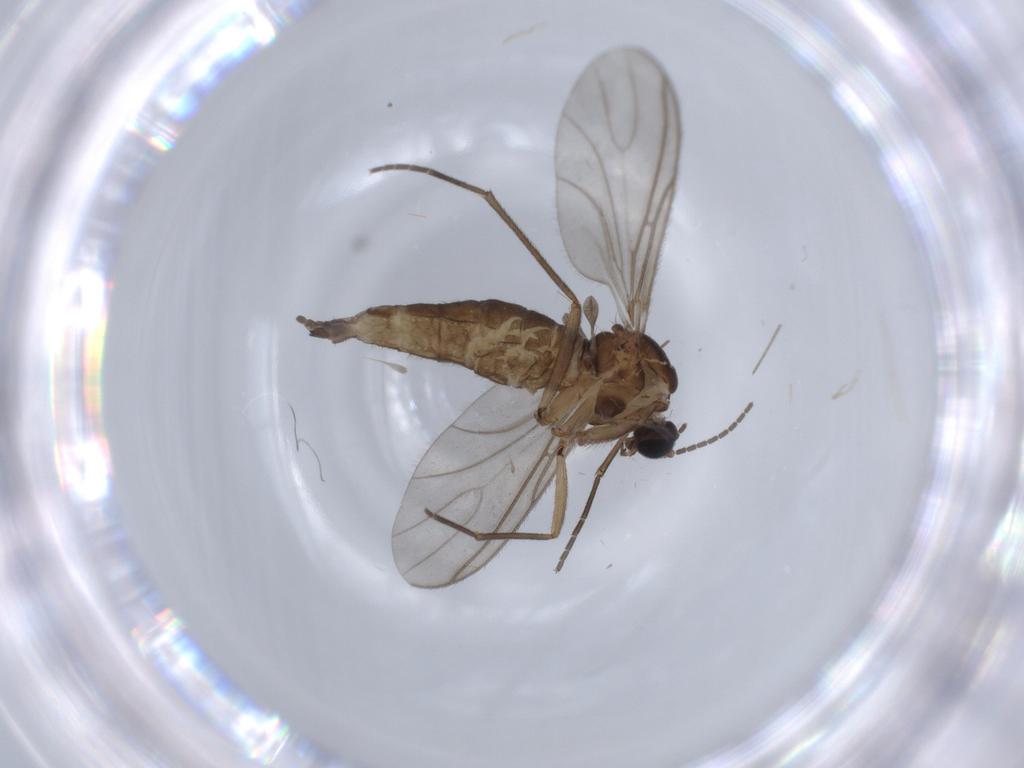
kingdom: Animalia
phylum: Arthropoda
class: Insecta
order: Diptera
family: Sciaridae
